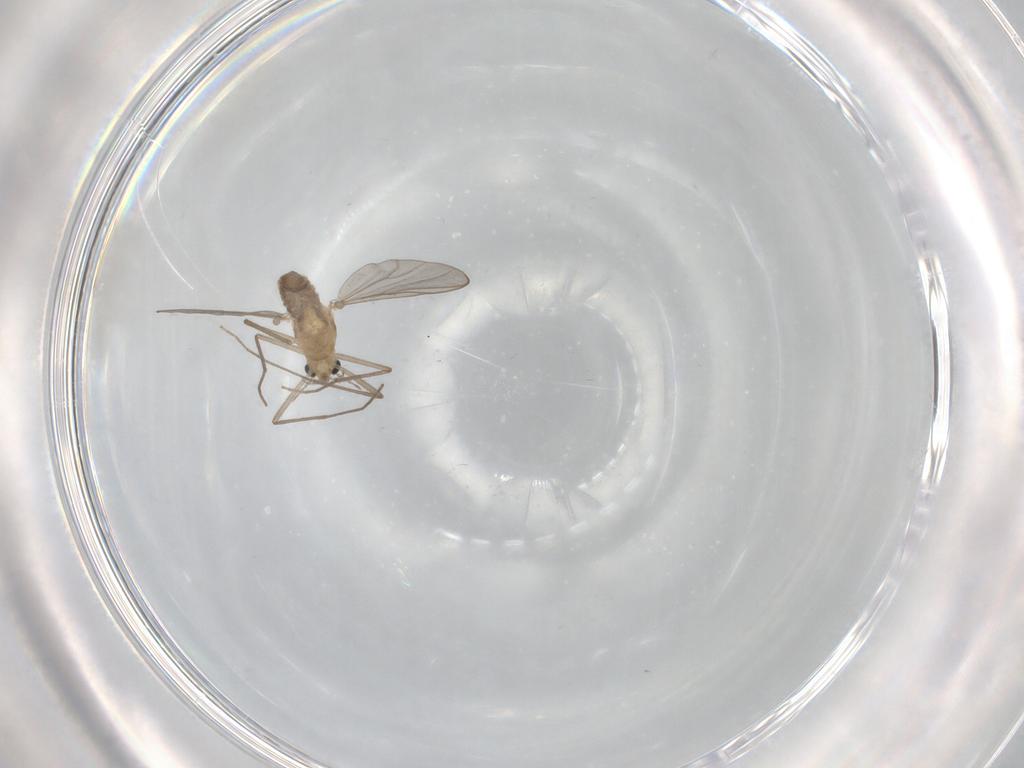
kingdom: Animalia
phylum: Arthropoda
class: Insecta
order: Diptera
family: Chironomidae
